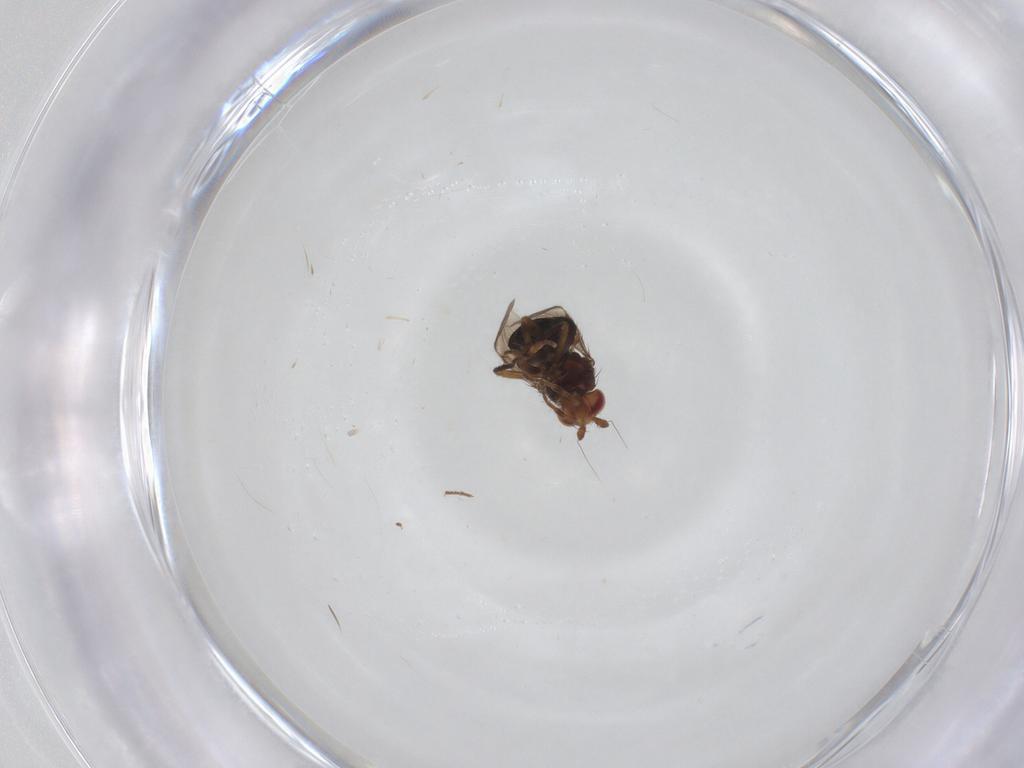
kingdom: Animalia
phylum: Arthropoda
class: Insecta
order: Diptera
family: Sphaeroceridae
